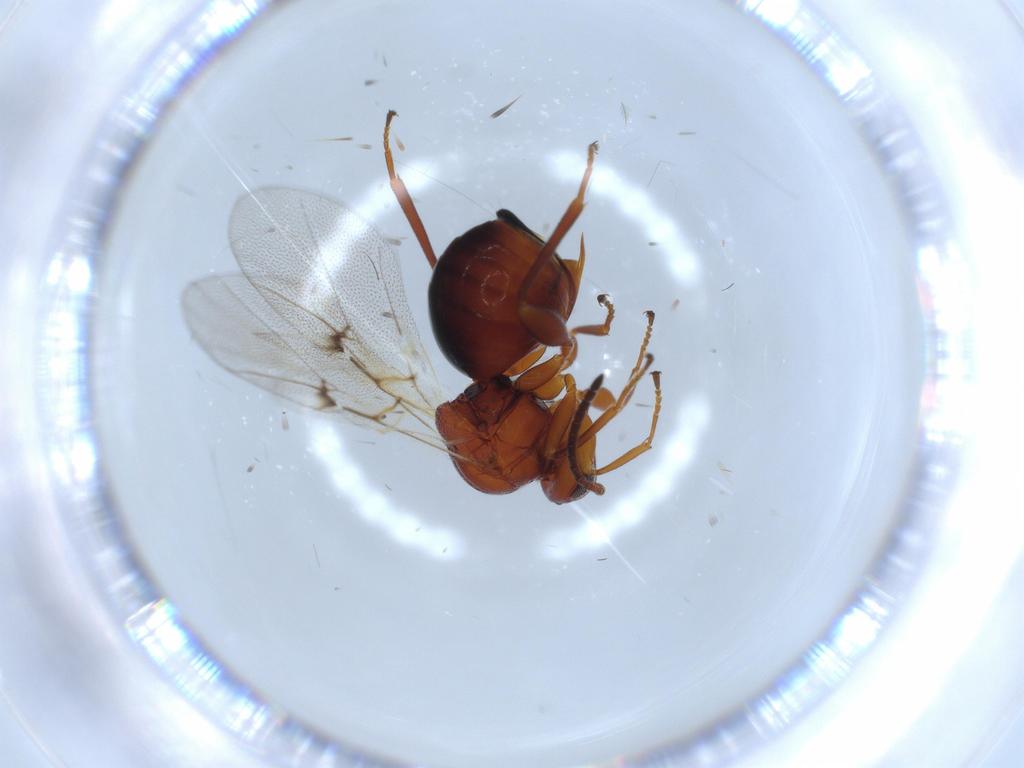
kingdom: Animalia
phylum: Arthropoda
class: Insecta
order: Hymenoptera
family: Cynipidae
